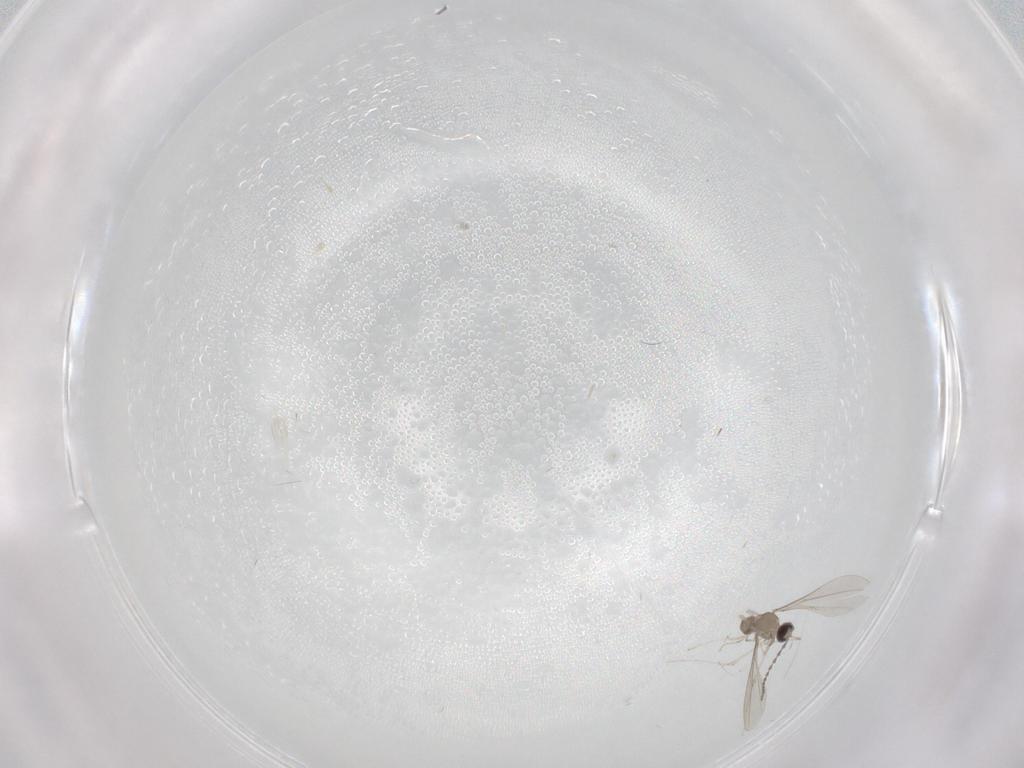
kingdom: Animalia
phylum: Arthropoda
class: Insecta
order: Diptera
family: Cecidomyiidae
